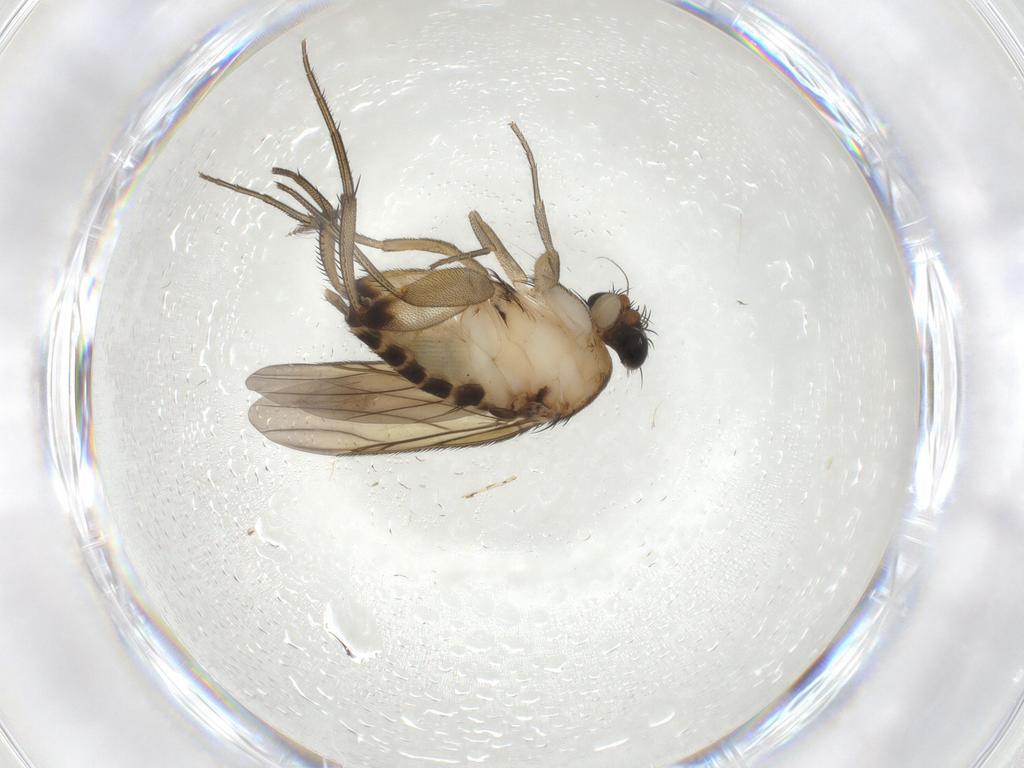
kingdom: Animalia
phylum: Arthropoda
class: Insecta
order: Diptera
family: Phoridae
